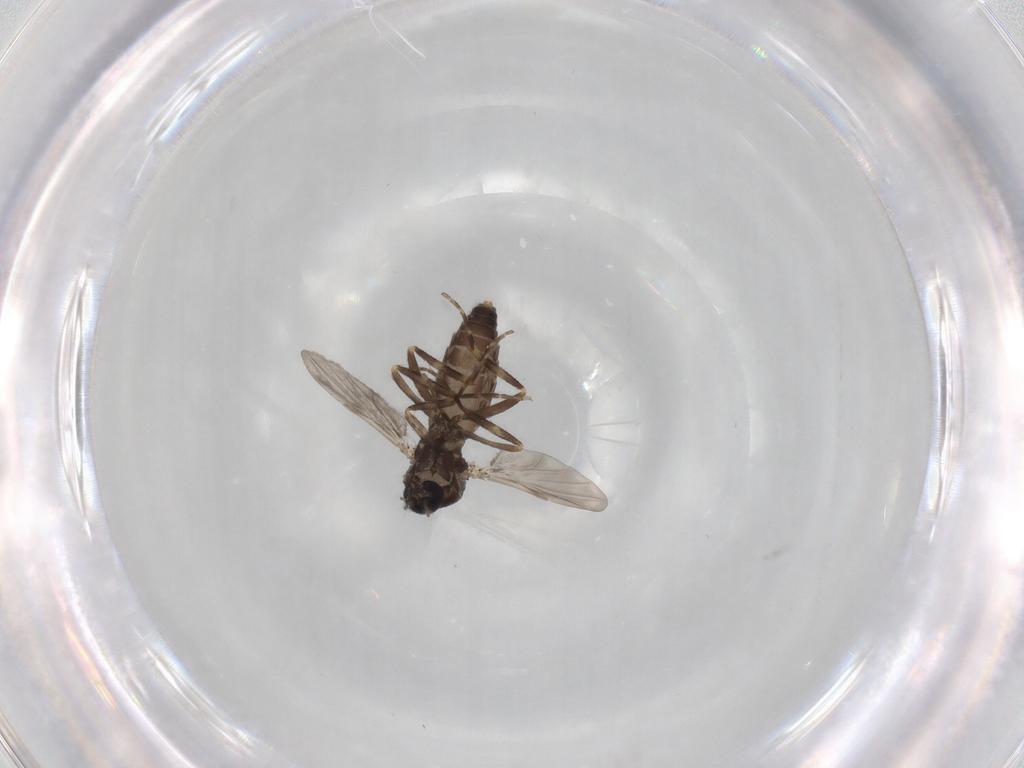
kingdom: Animalia
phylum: Arthropoda
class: Insecta
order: Diptera
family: Ceratopogonidae
